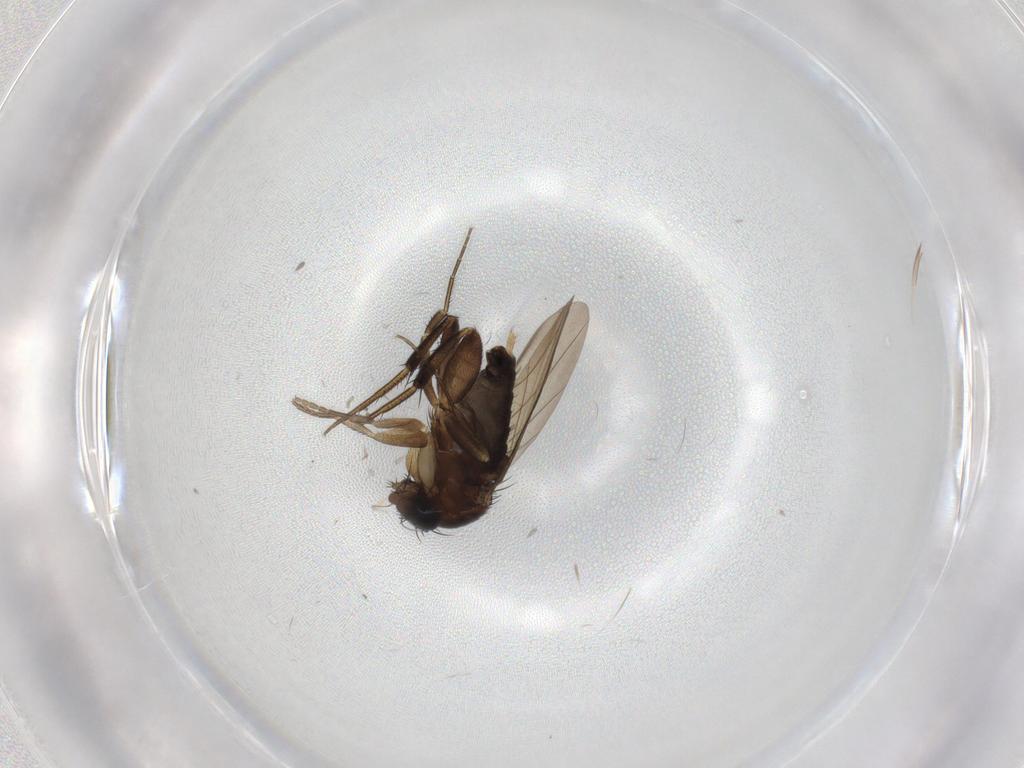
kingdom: Animalia
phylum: Arthropoda
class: Insecta
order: Diptera
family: Phoridae
